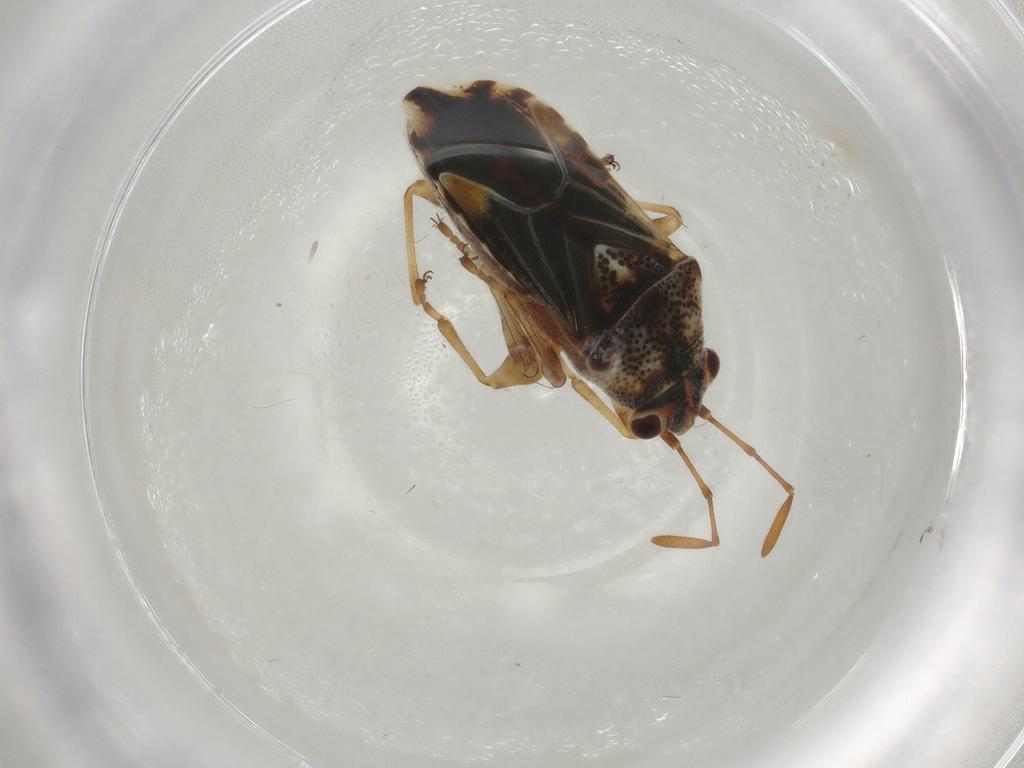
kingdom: Animalia
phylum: Arthropoda
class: Insecta
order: Hemiptera
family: Lygaeidae
